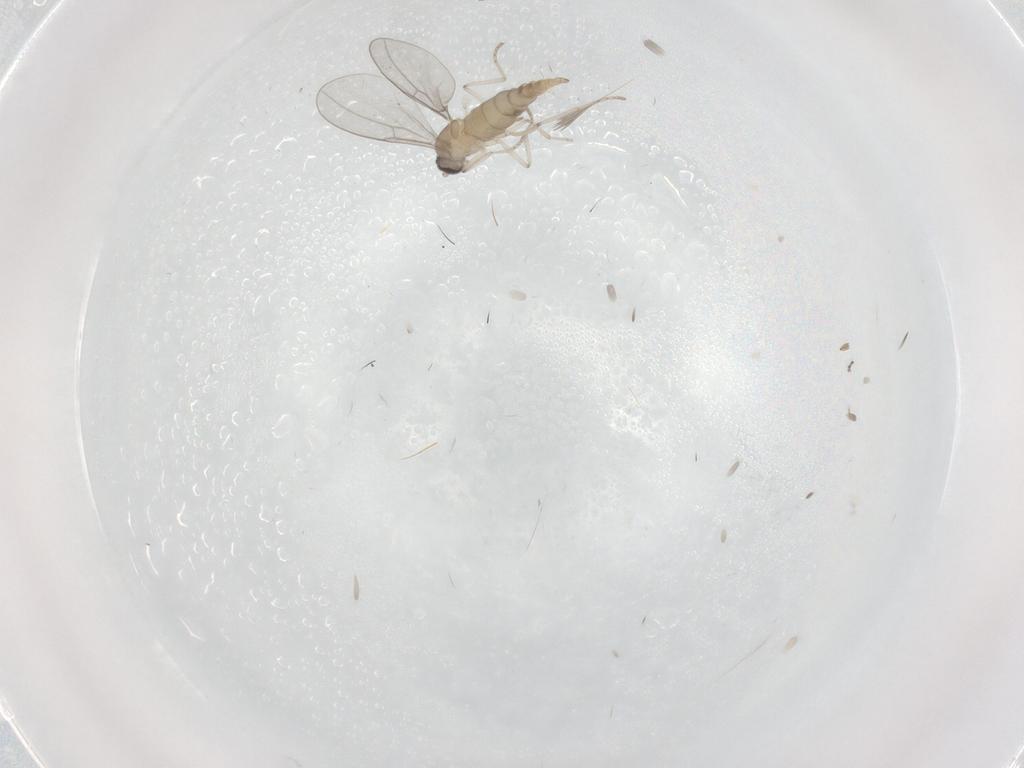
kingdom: Animalia
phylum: Arthropoda
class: Insecta
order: Diptera
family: Cecidomyiidae
